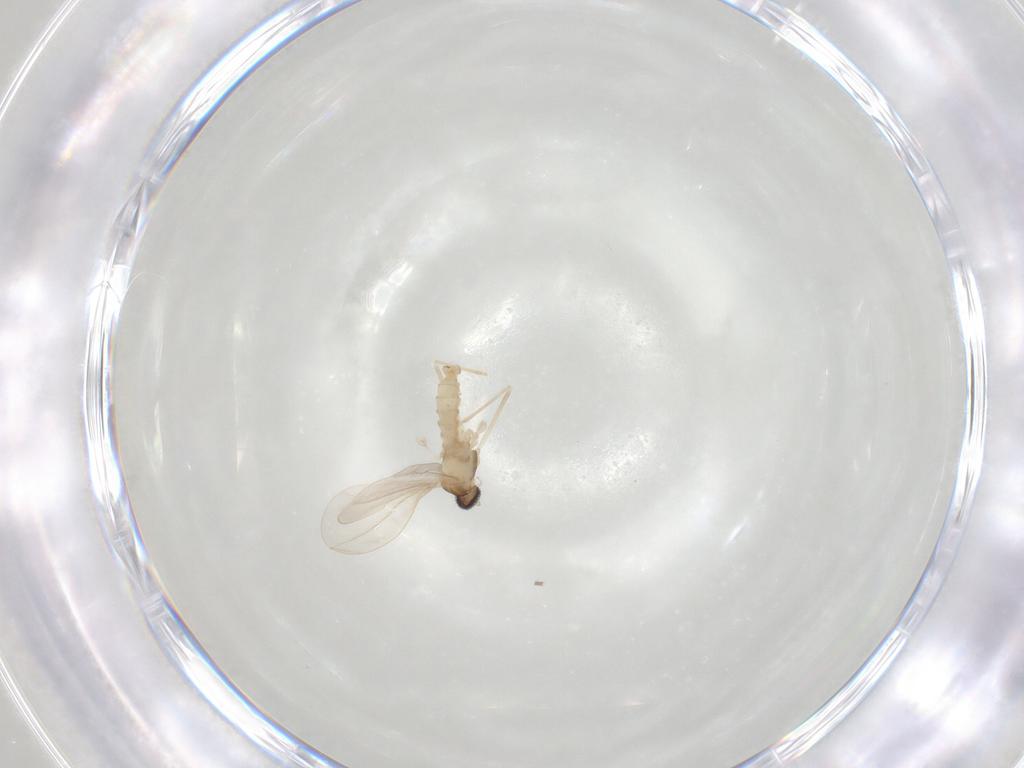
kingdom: Animalia
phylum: Arthropoda
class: Insecta
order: Diptera
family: Cecidomyiidae
